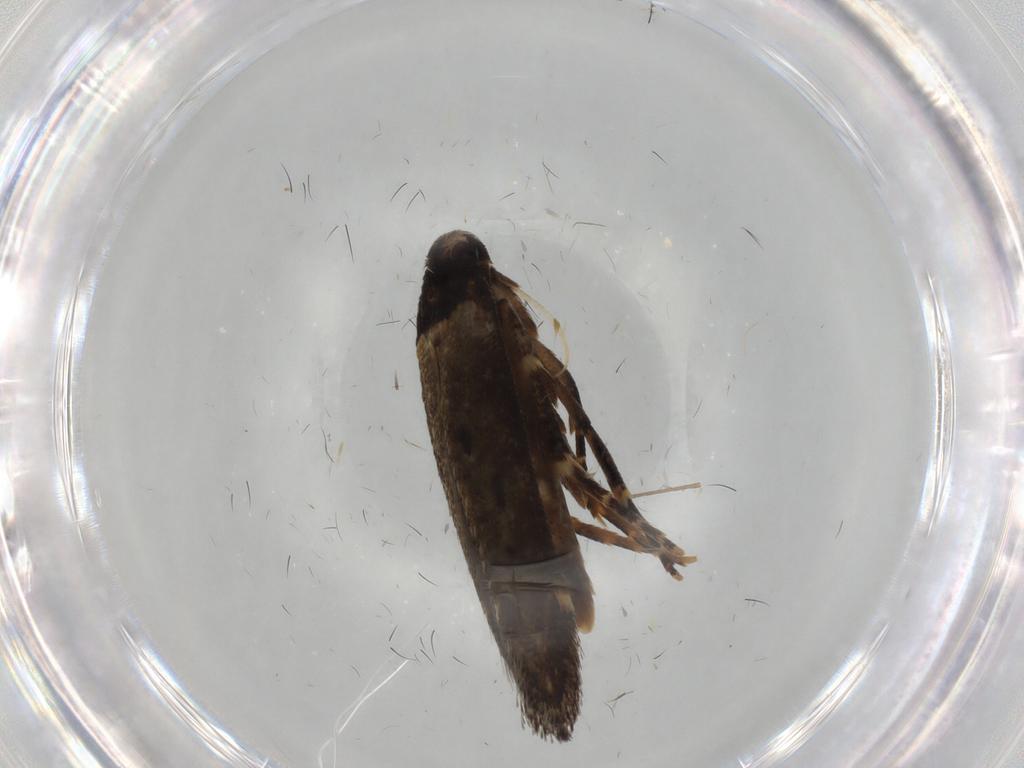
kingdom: Animalia
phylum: Arthropoda
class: Insecta
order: Lepidoptera
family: Cosmopterigidae
